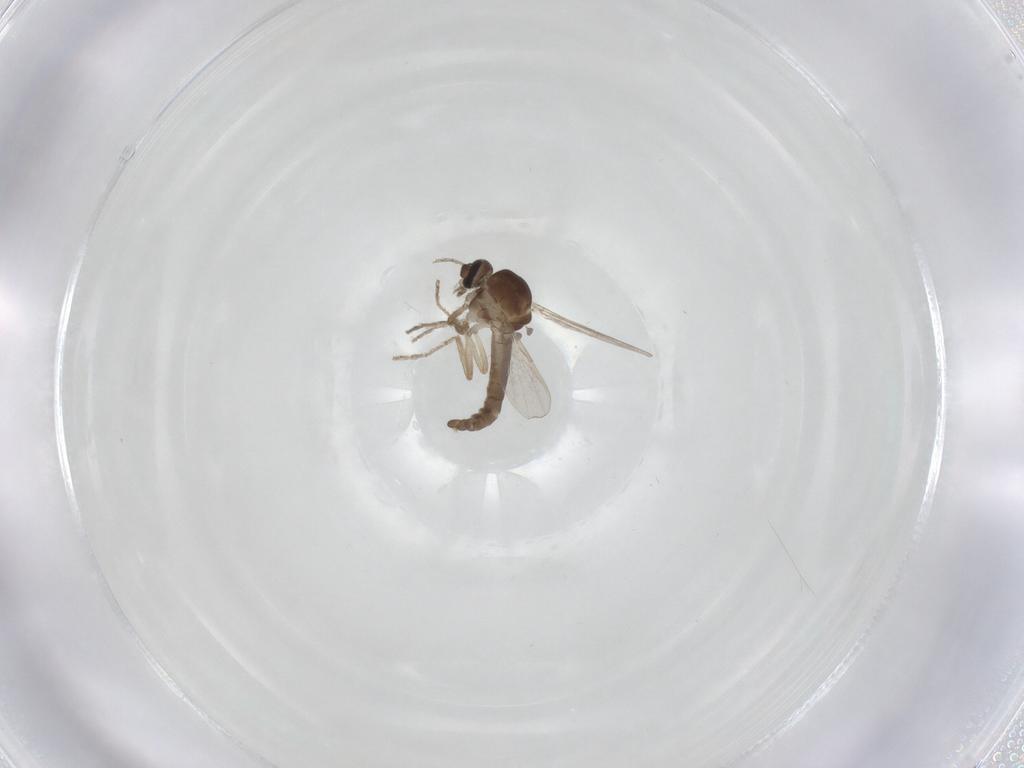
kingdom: Animalia
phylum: Arthropoda
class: Insecta
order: Diptera
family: Ceratopogonidae
